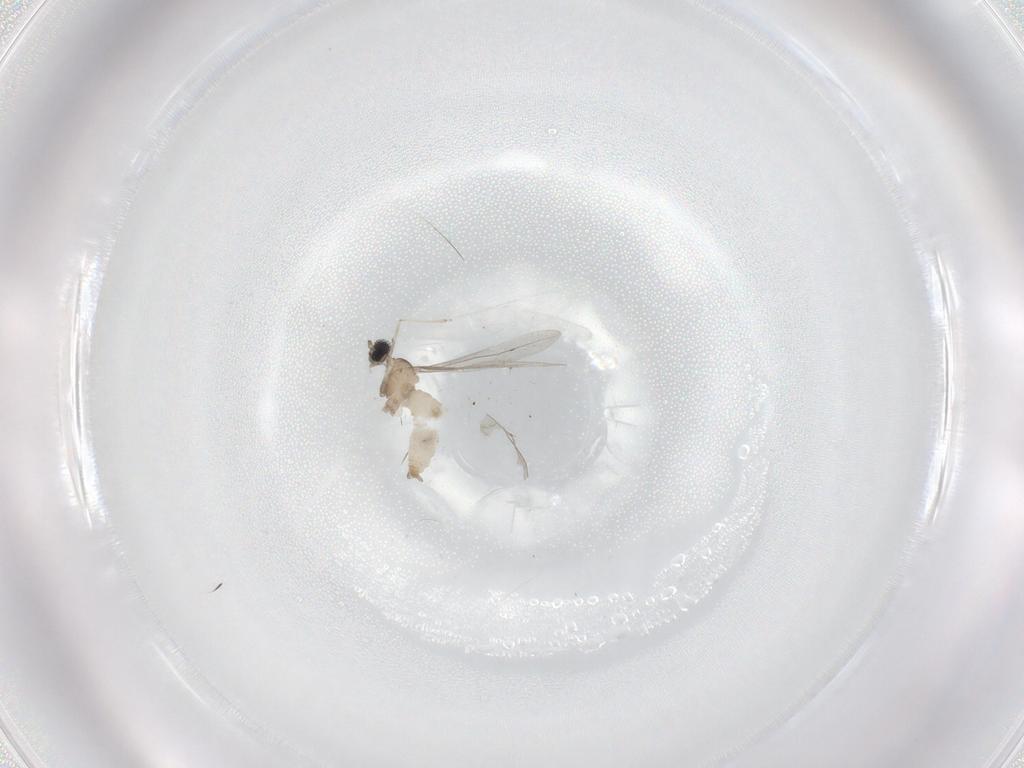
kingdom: Animalia
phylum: Arthropoda
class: Insecta
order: Diptera
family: Cecidomyiidae
